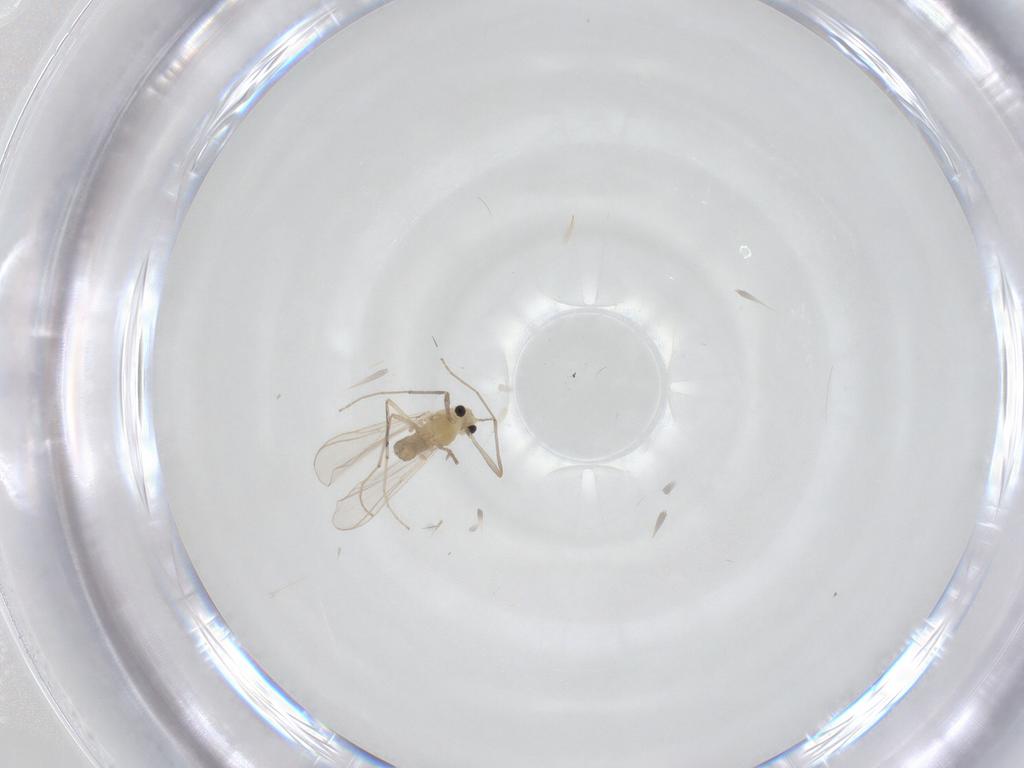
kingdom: Animalia
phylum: Arthropoda
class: Insecta
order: Diptera
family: Chironomidae
